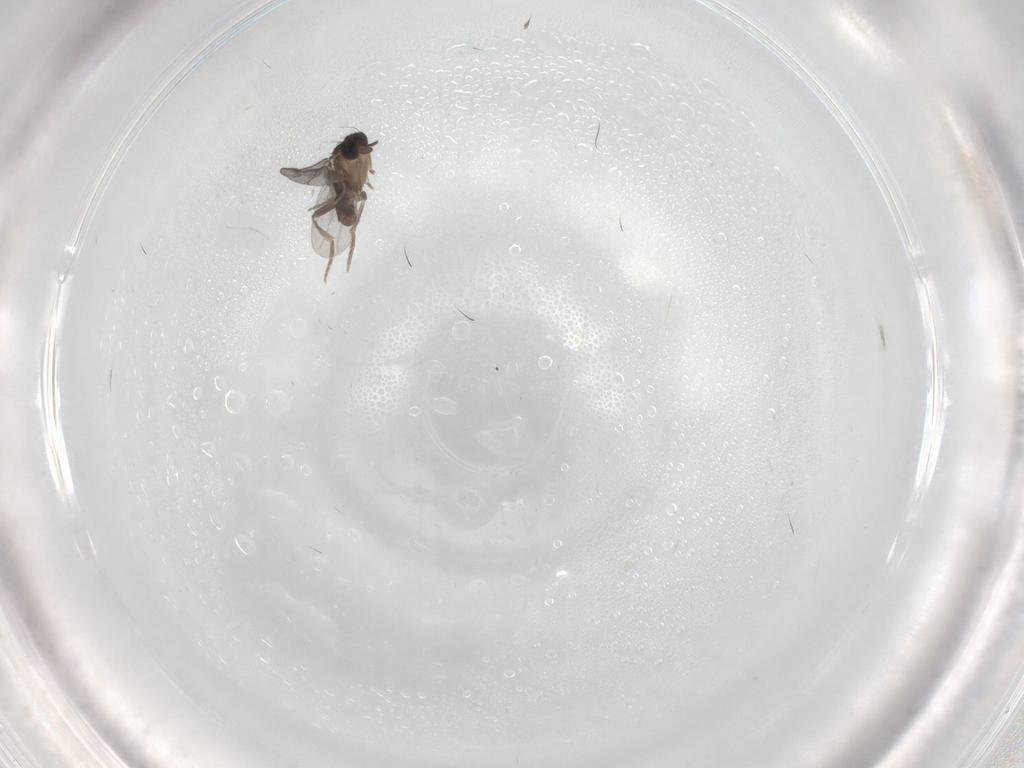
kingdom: Animalia
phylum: Arthropoda
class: Insecta
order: Diptera
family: Phoridae
